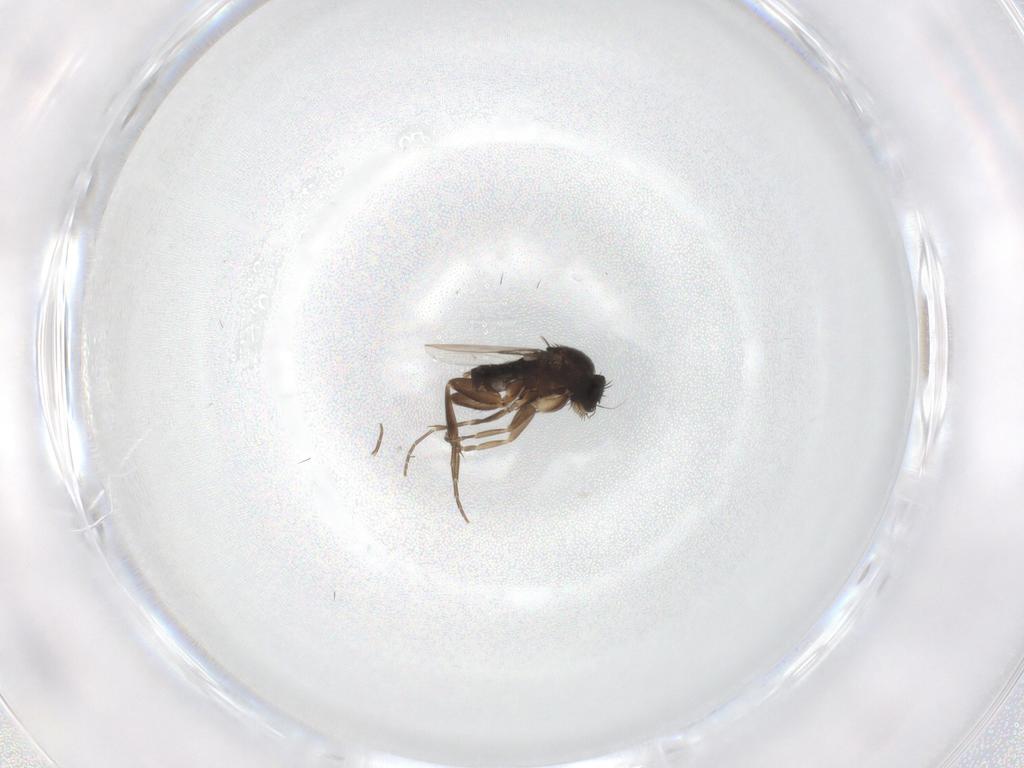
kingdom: Animalia
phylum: Arthropoda
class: Insecta
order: Diptera
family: Phoridae
